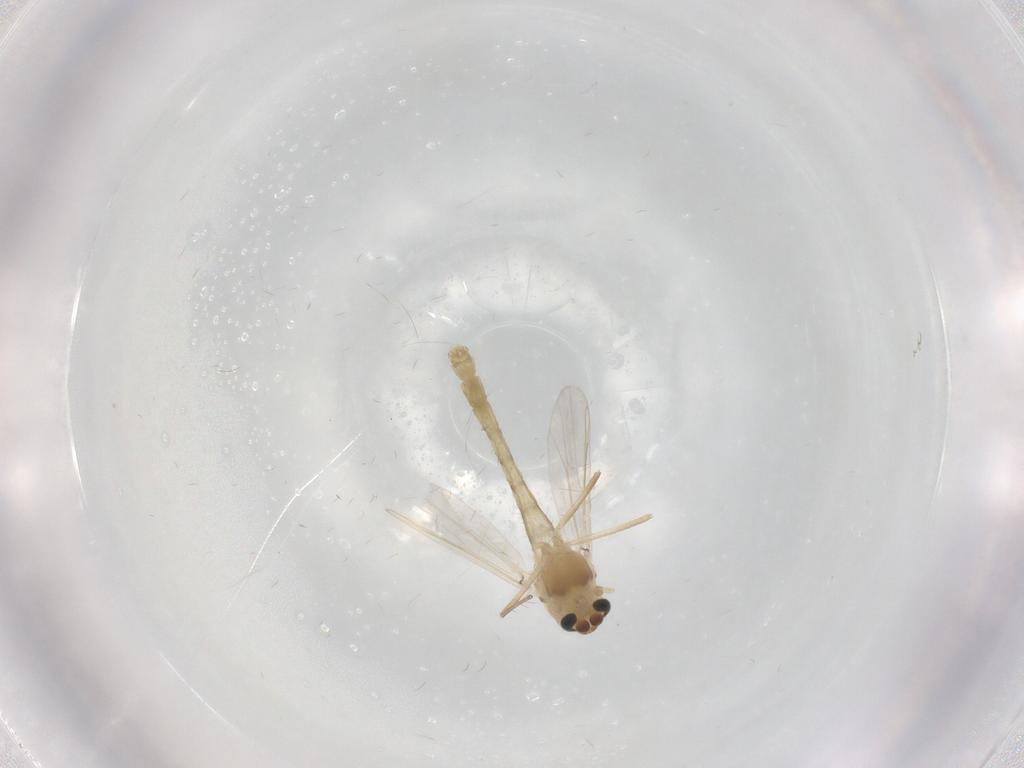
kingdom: Animalia
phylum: Arthropoda
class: Insecta
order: Diptera
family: Chironomidae
